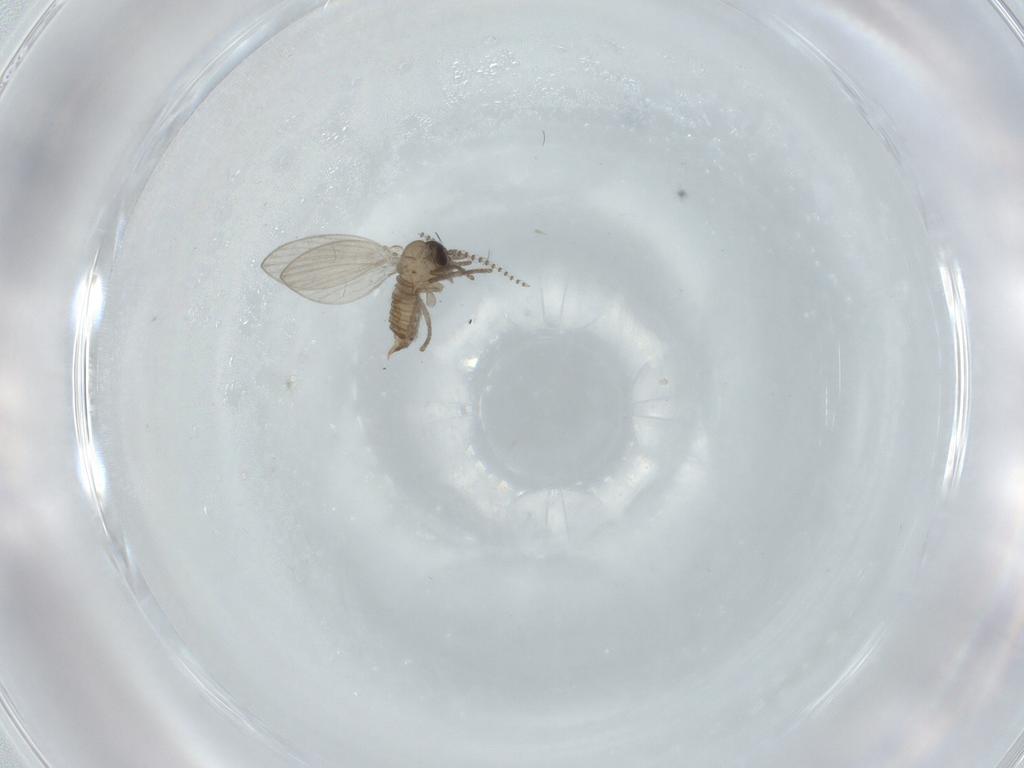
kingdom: Animalia
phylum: Arthropoda
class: Insecta
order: Diptera
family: Psychodidae
